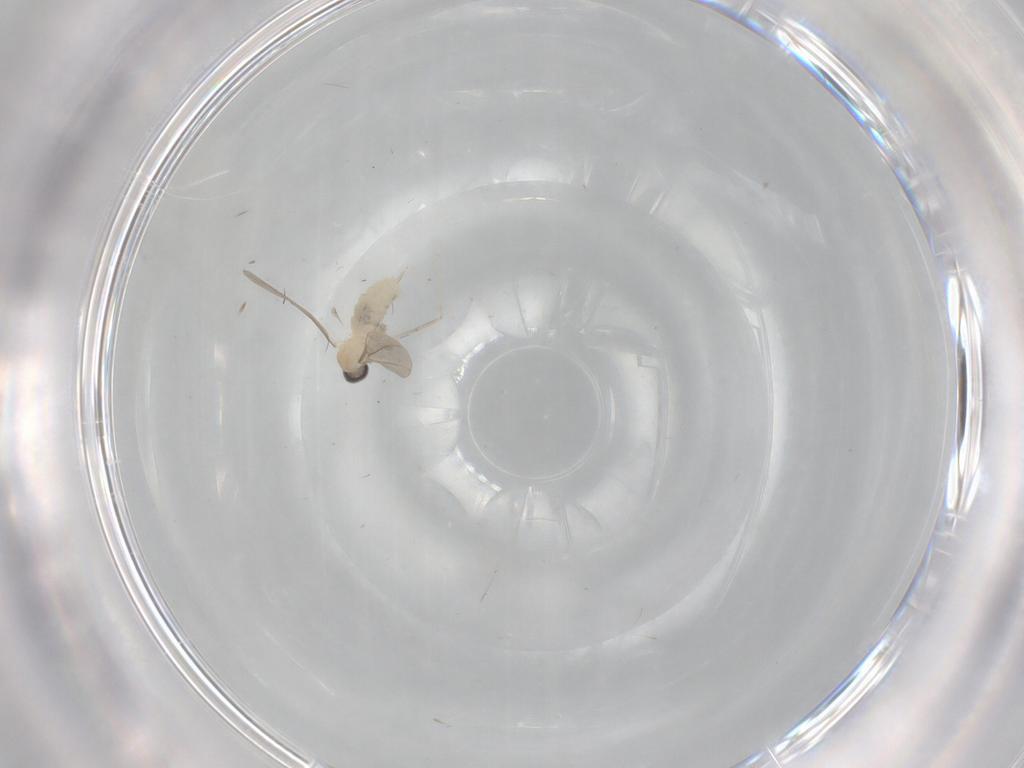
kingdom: Animalia
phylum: Arthropoda
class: Insecta
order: Diptera
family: Cecidomyiidae
